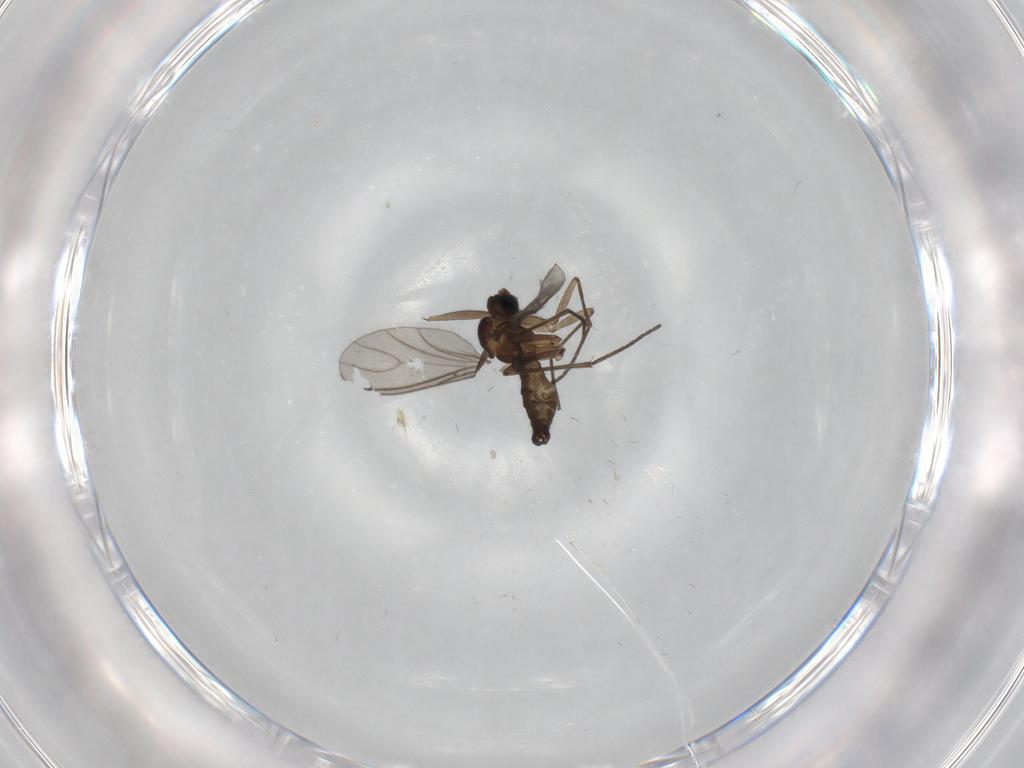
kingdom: Animalia
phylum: Arthropoda
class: Insecta
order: Diptera
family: Sciaridae
